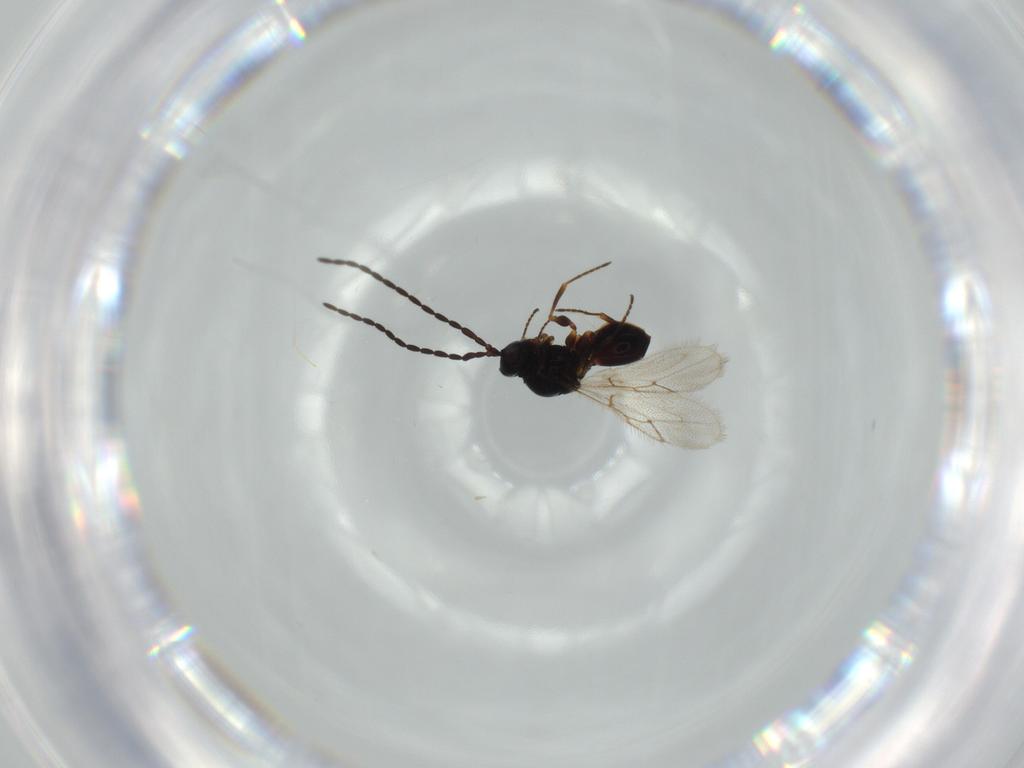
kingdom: Animalia
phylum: Arthropoda
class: Insecta
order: Hymenoptera
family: Figitidae
